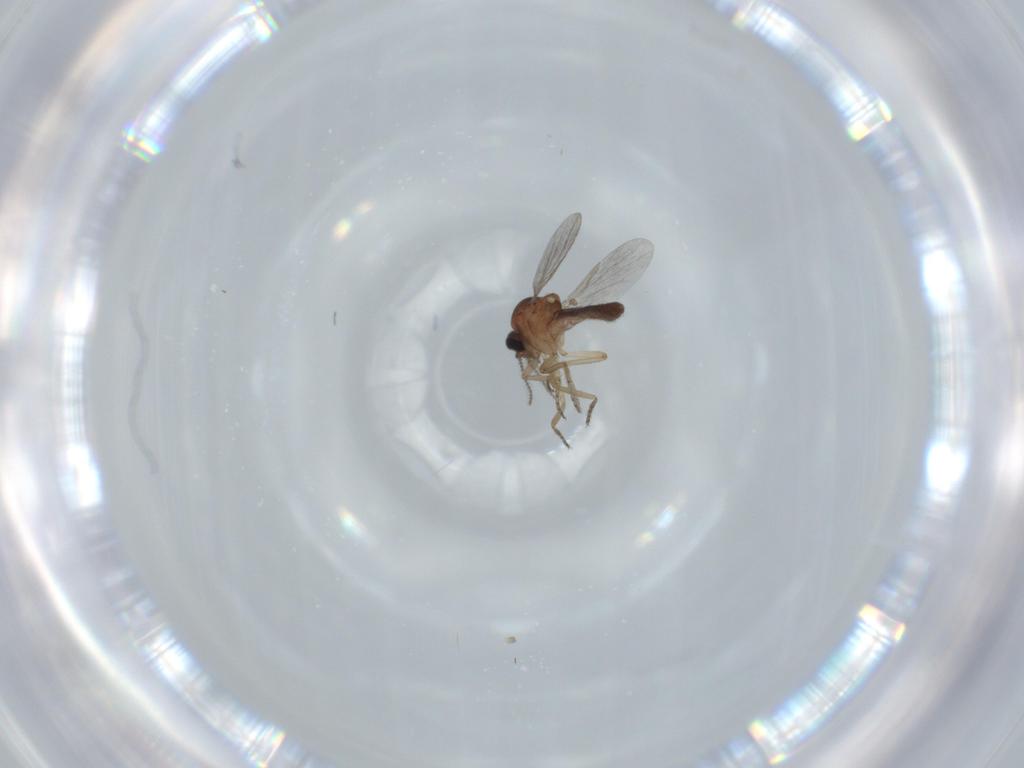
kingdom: Animalia
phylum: Arthropoda
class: Insecta
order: Diptera
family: Ceratopogonidae
